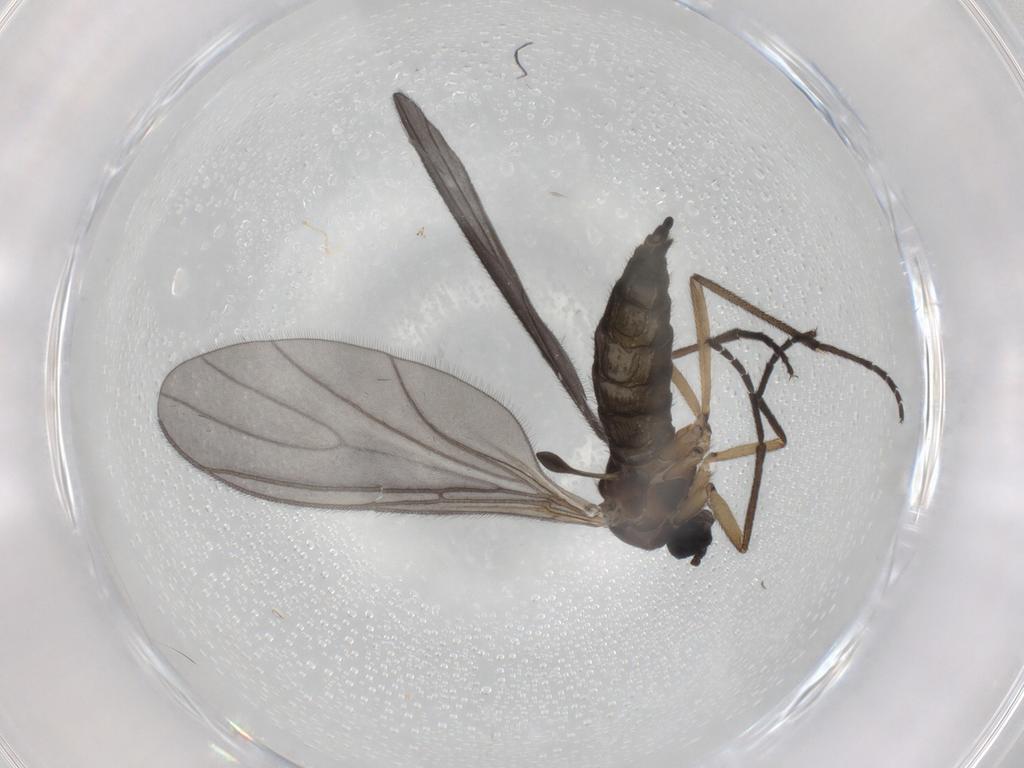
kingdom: Animalia
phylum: Arthropoda
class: Insecta
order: Diptera
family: Sciaridae
